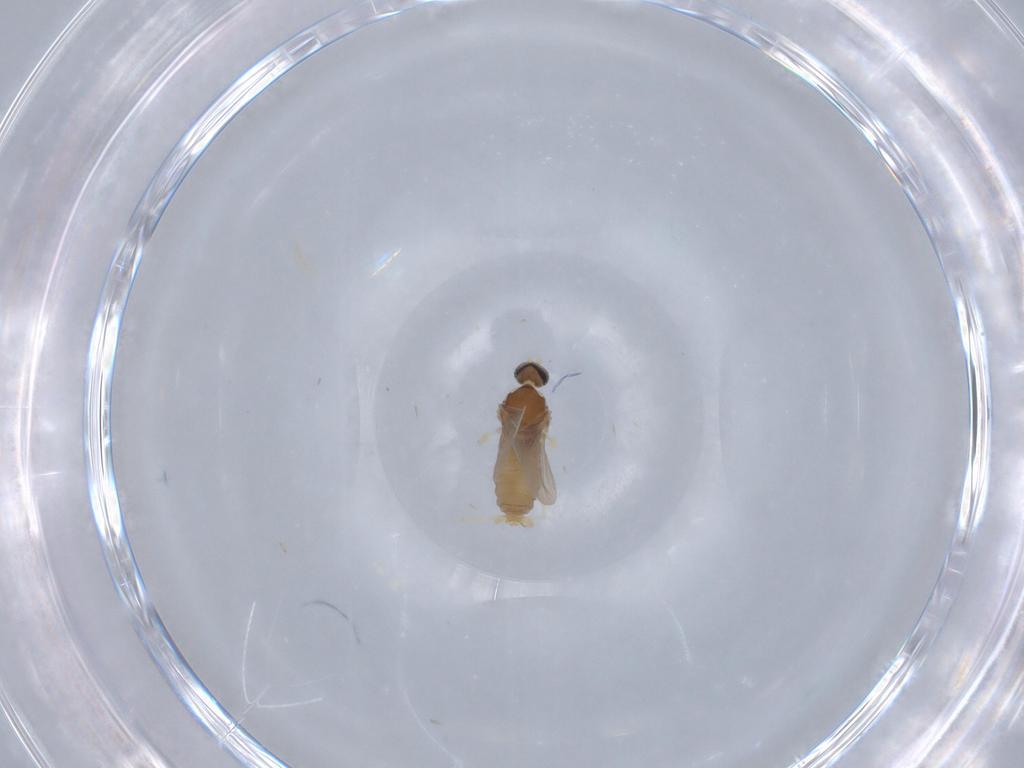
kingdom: Animalia
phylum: Arthropoda
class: Insecta
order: Diptera
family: Cecidomyiidae
